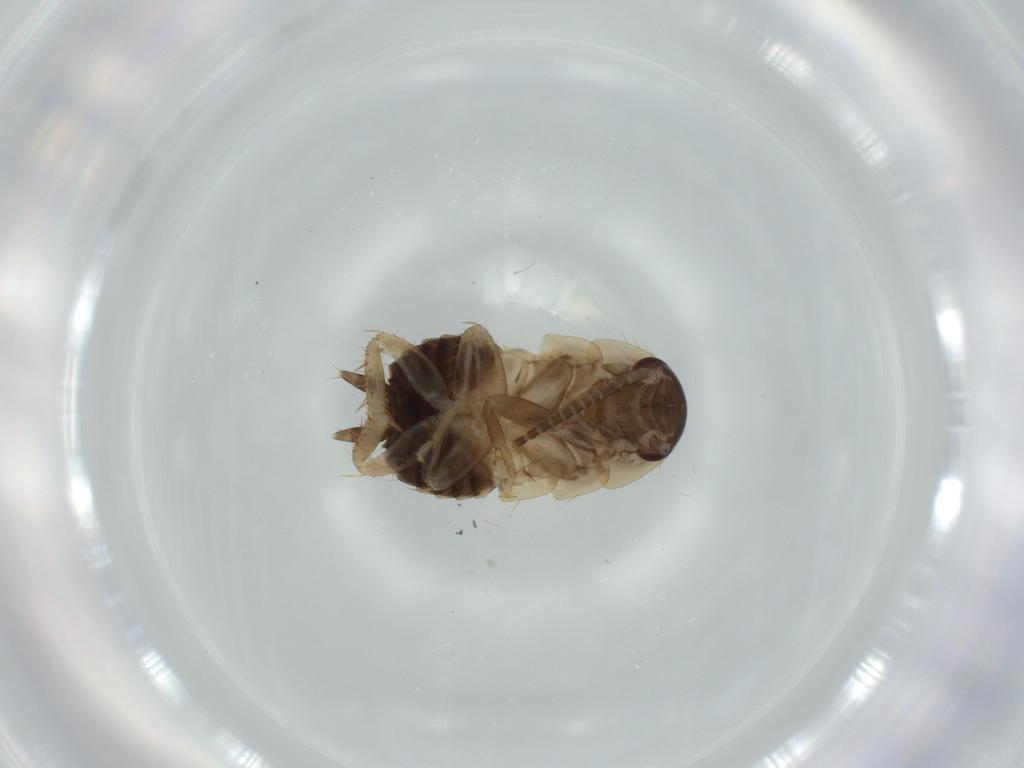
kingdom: Animalia
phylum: Arthropoda
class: Insecta
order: Blattodea
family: Ectobiidae
